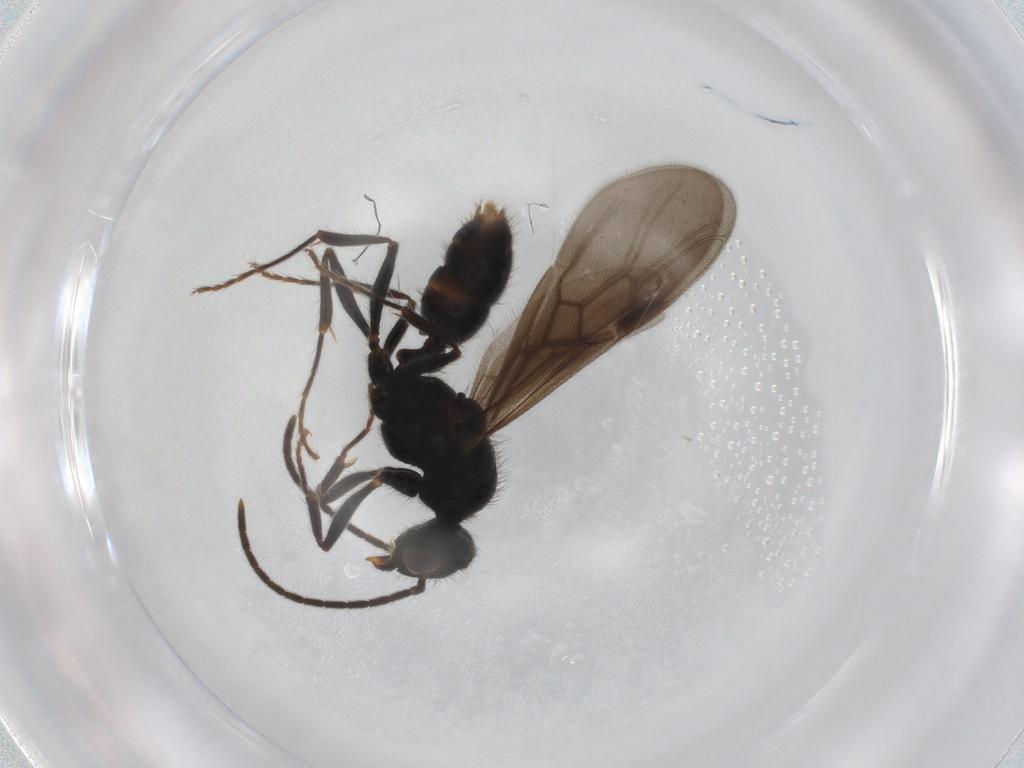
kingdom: Animalia
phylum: Arthropoda
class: Insecta
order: Hymenoptera
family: Formicidae
